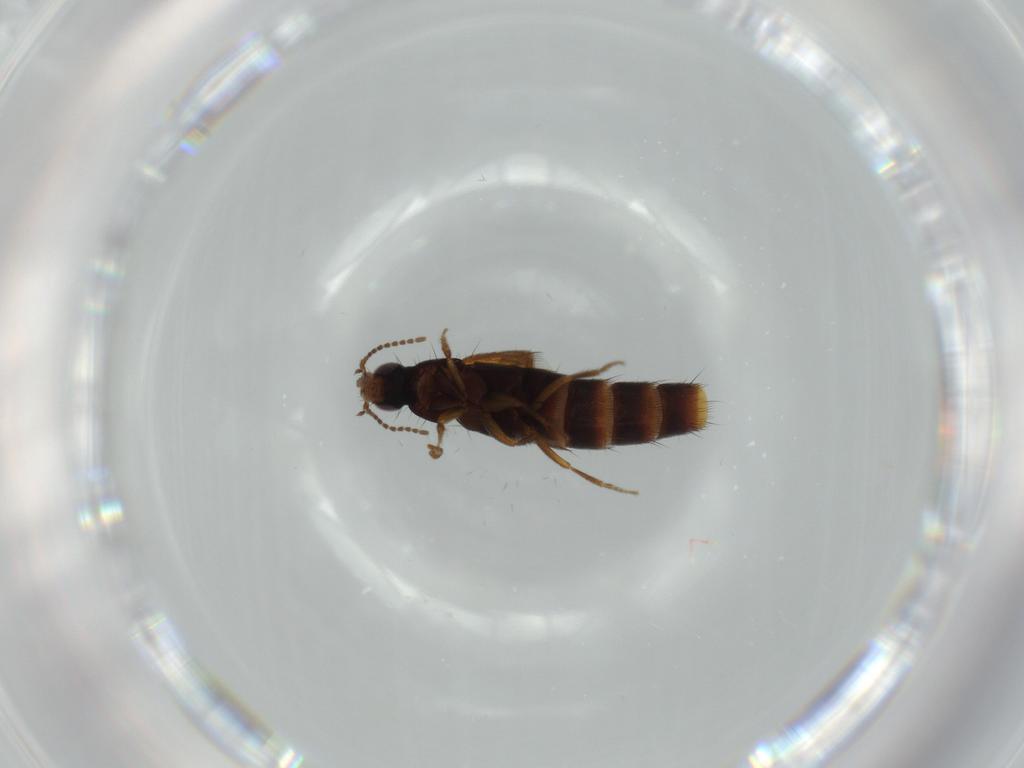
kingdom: Animalia
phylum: Arthropoda
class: Insecta
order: Coleoptera
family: Staphylinidae
